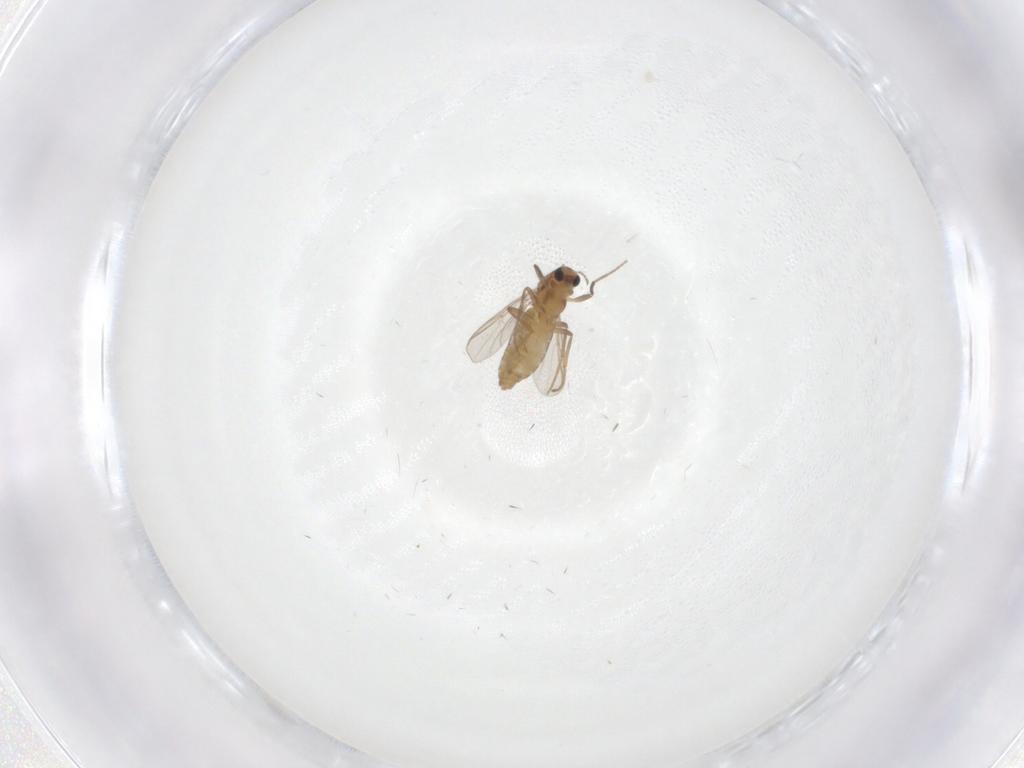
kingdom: Animalia
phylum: Arthropoda
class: Insecta
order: Diptera
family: Chironomidae
